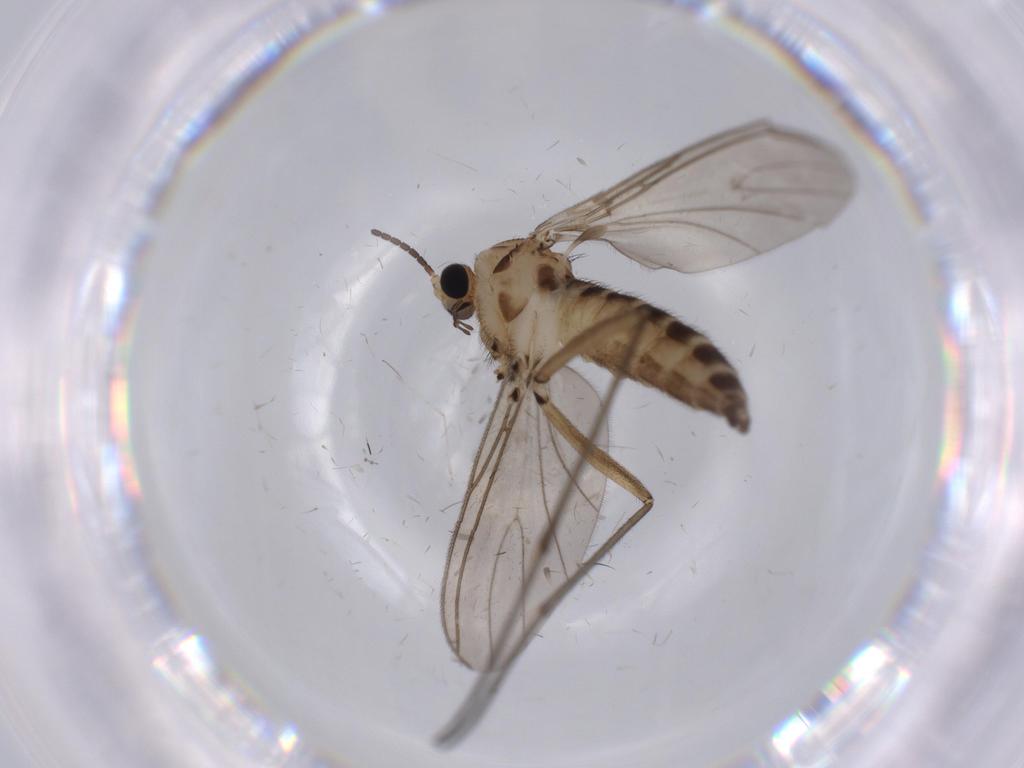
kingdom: Animalia
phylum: Arthropoda
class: Insecta
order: Diptera
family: Sciaridae
